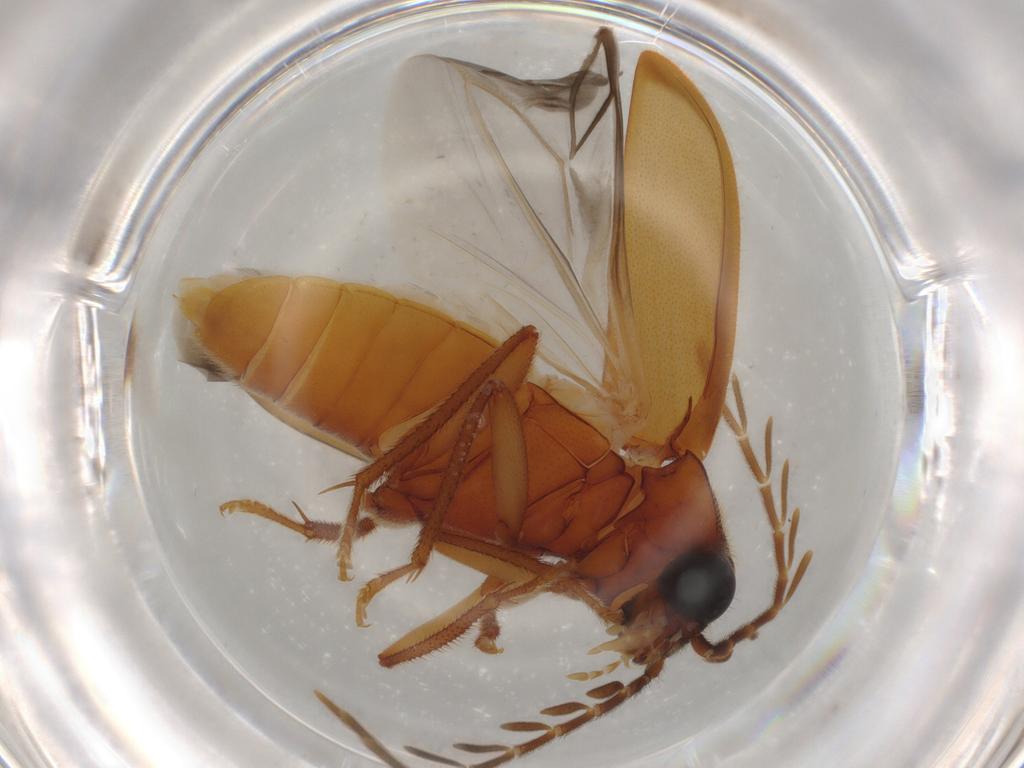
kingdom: Animalia
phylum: Arthropoda
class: Insecta
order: Coleoptera
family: Ptilodactylidae
